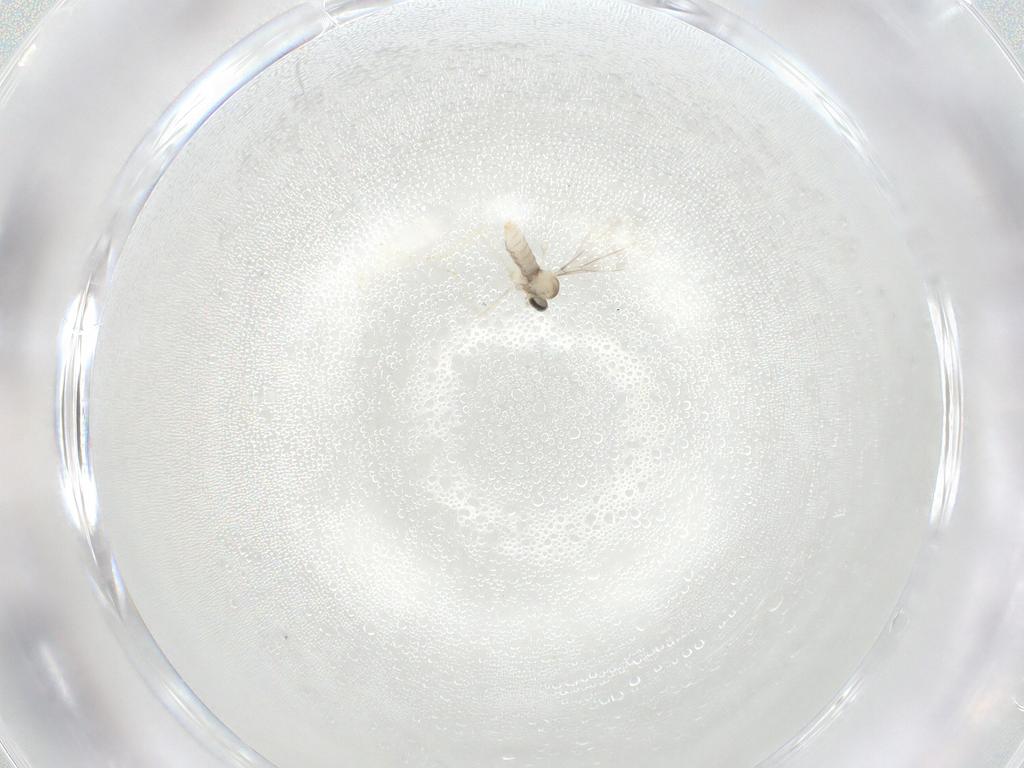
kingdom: Animalia
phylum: Arthropoda
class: Insecta
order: Diptera
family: Cecidomyiidae
